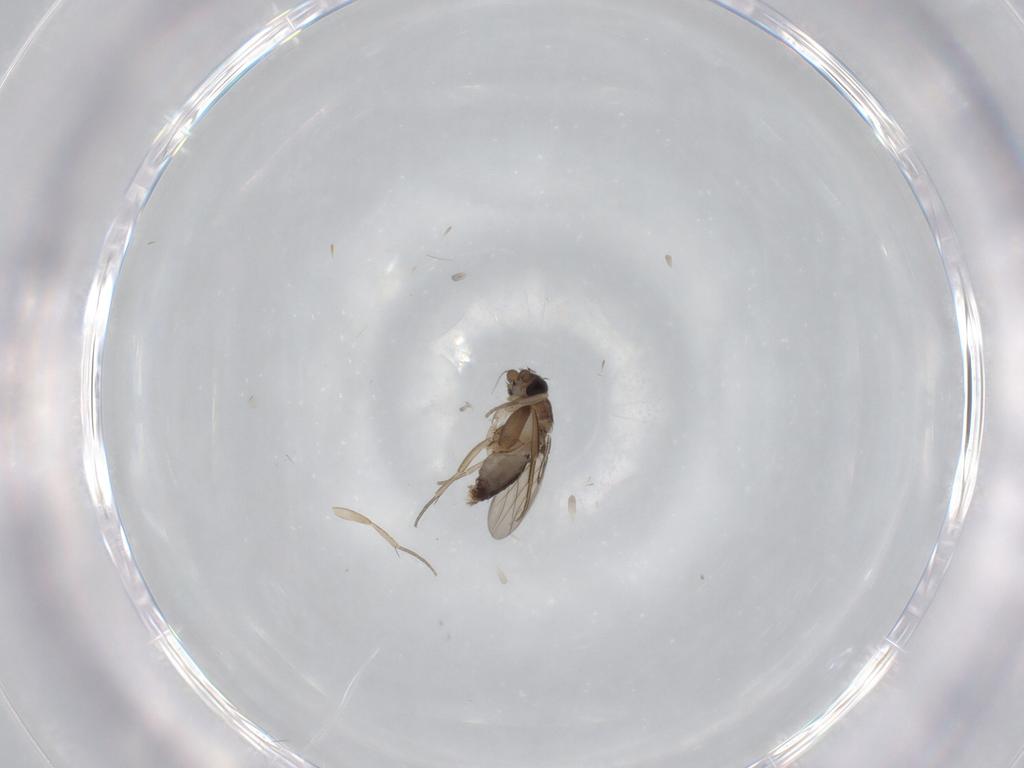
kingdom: Animalia
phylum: Arthropoda
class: Insecta
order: Diptera
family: Phoridae
